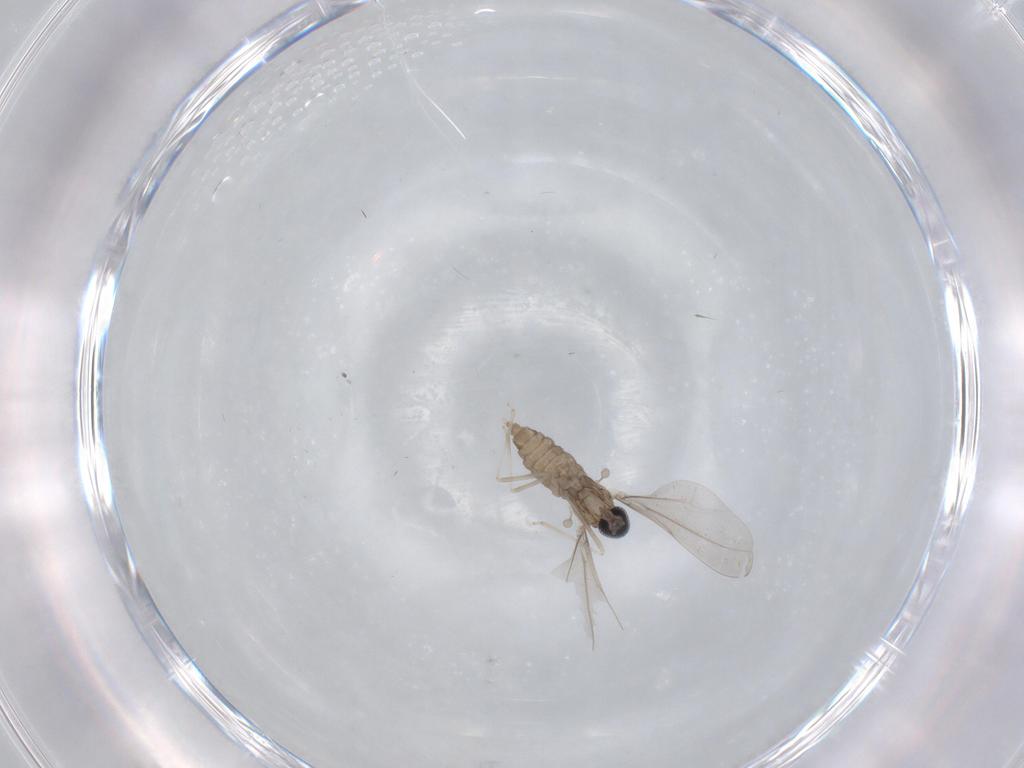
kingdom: Animalia
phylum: Arthropoda
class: Insecta
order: Diptera
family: Cecidomyiidae
